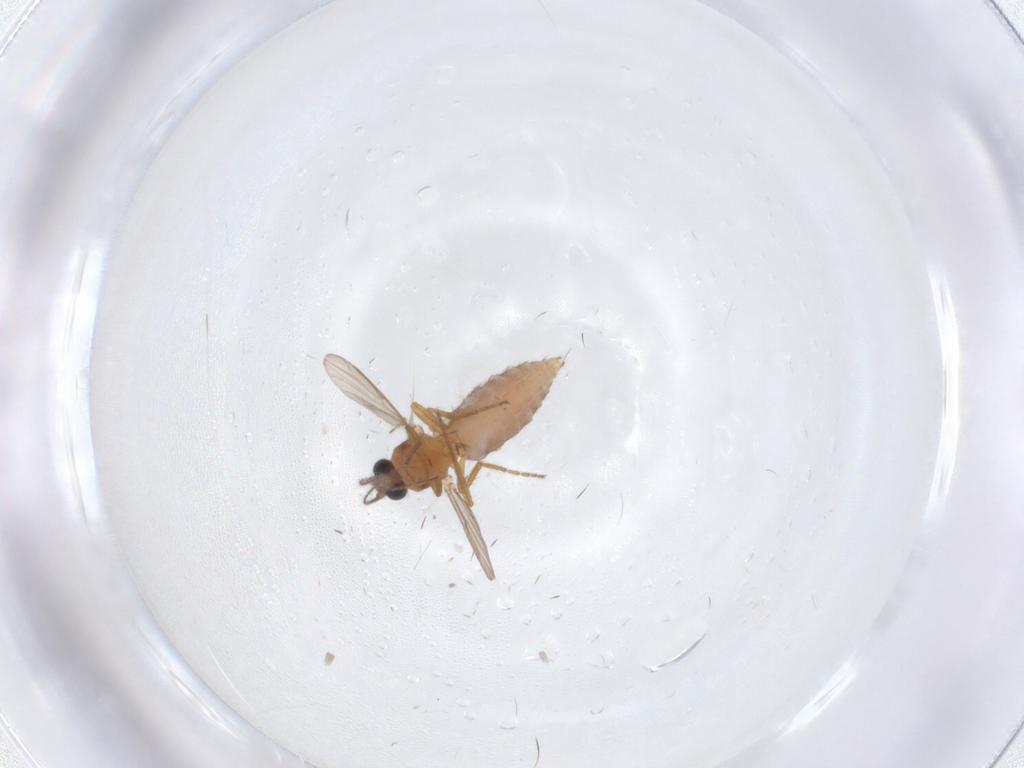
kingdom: Animalia
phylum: Arthropoda
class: Insecta
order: Diptera
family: Ceratopogonidae
